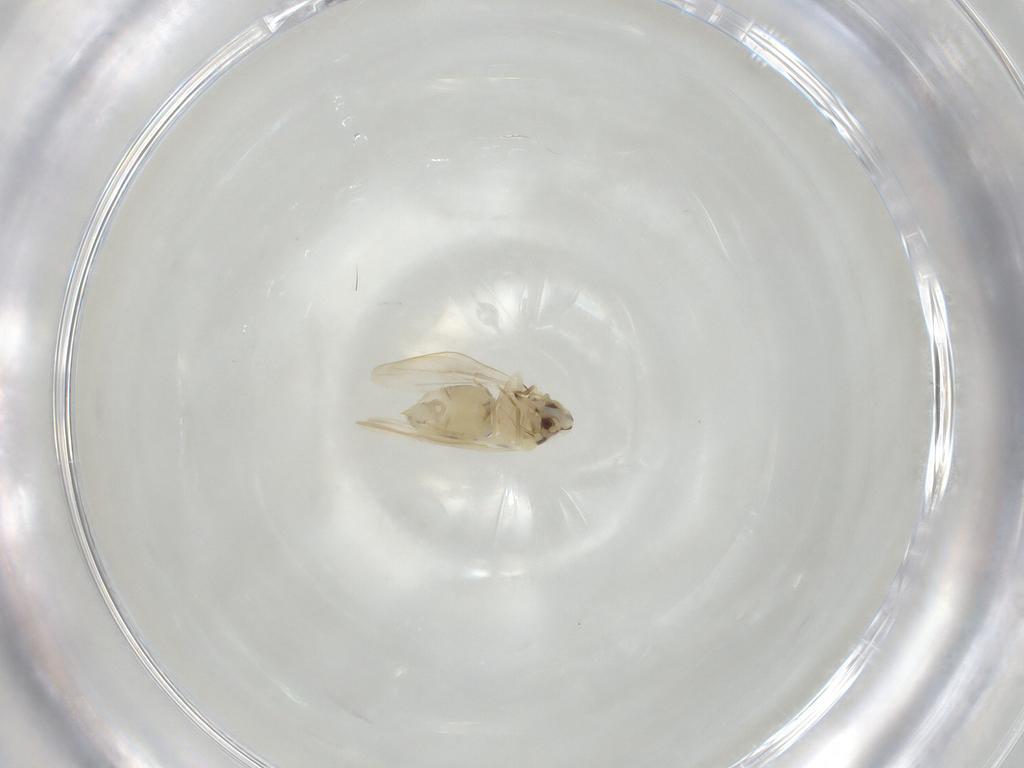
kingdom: Animalia
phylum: Arthropoda
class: Insecta
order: Hemiptera
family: Aleyrodidae
